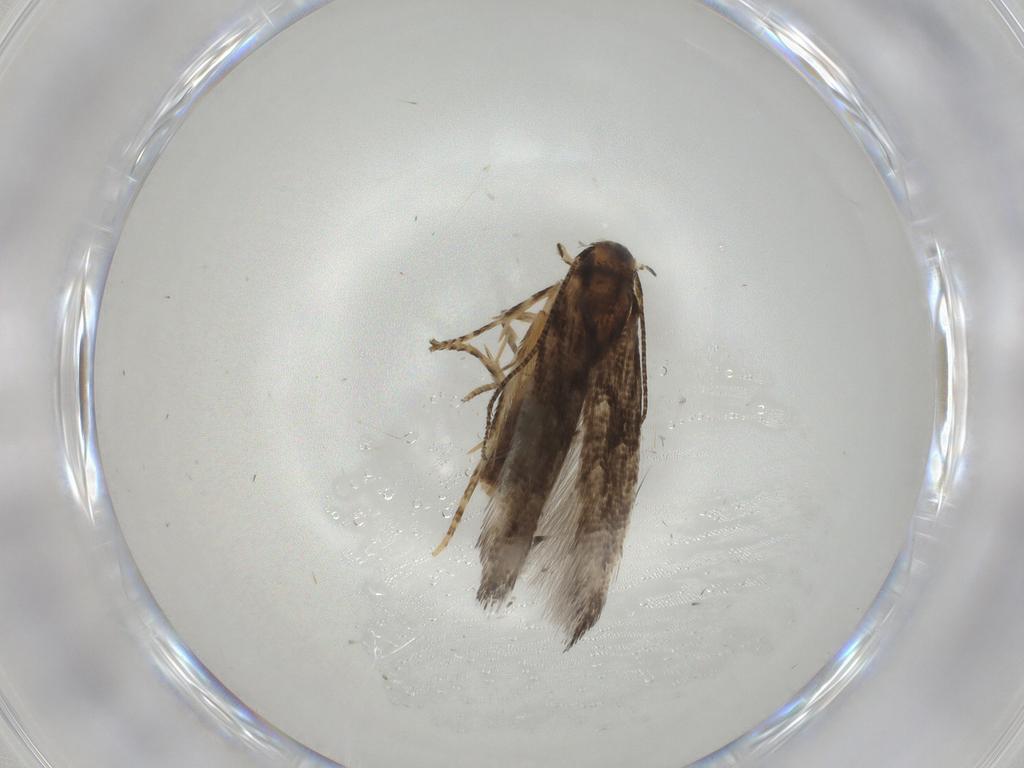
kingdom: Animalia
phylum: Arthropoda
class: Insecta
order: Lepidoptera
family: Elachistidae
